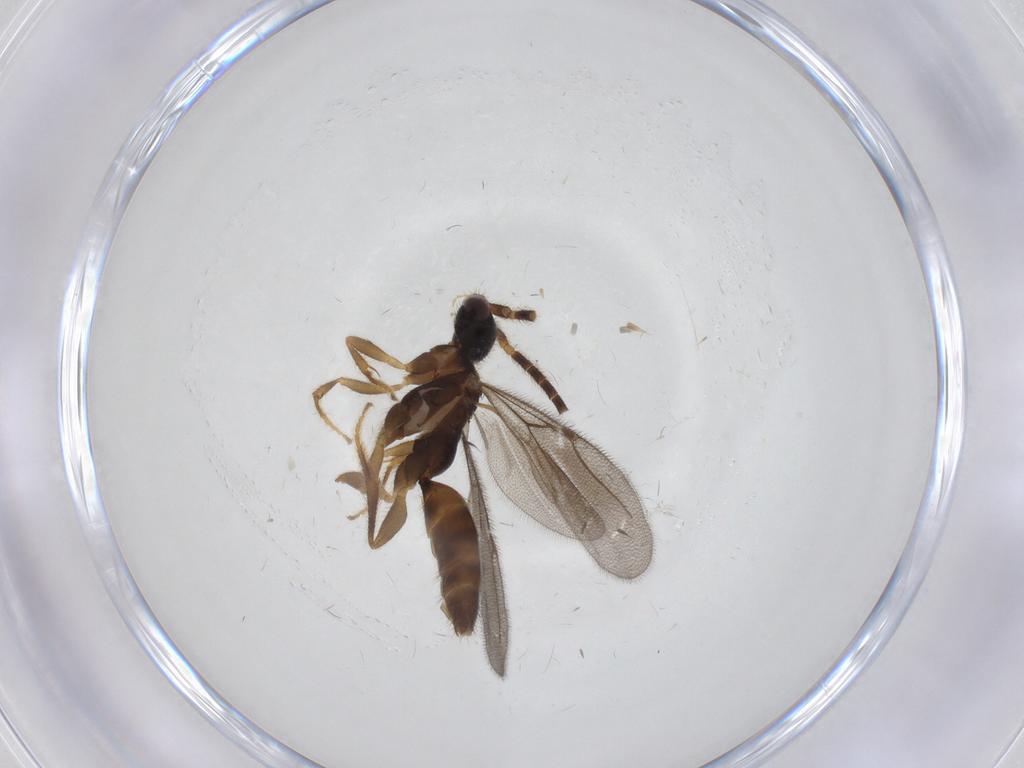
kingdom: Animalia
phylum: Arthropoda
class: Insecta
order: Hymenoptera
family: Bethylidae
